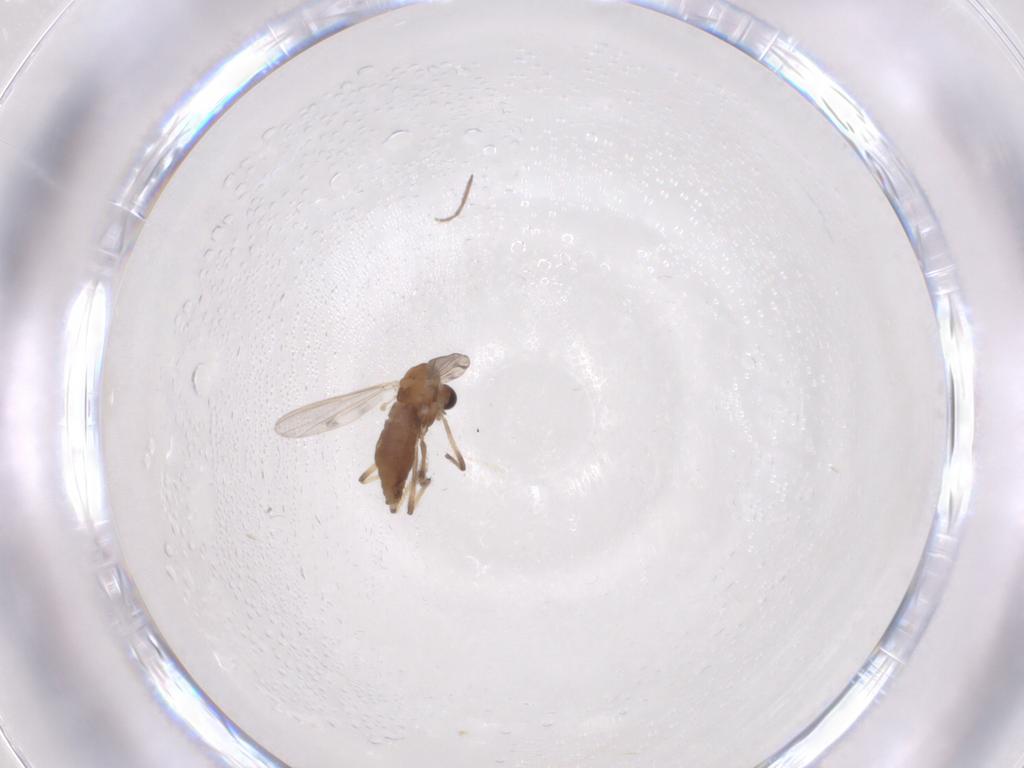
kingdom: Animalia
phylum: Arthropoda
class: Insecta
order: Diptera
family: Chironomidae
